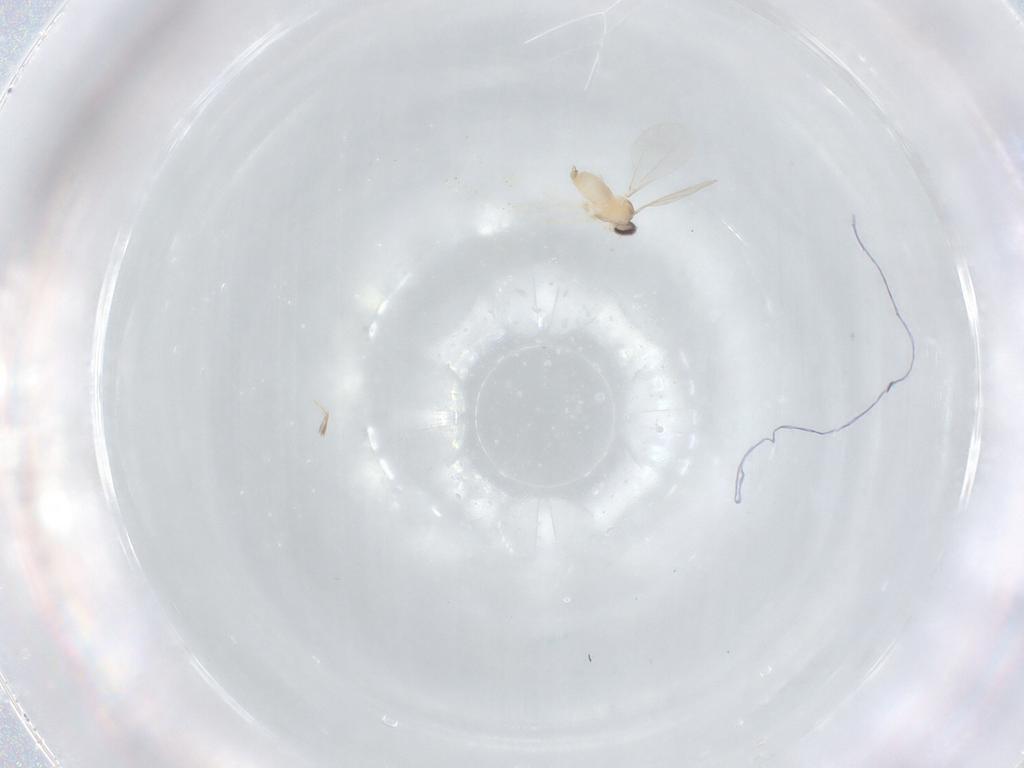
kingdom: Animalia
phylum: Arthropoda
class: Insecta
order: Diptera
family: Cecidomyiidae
